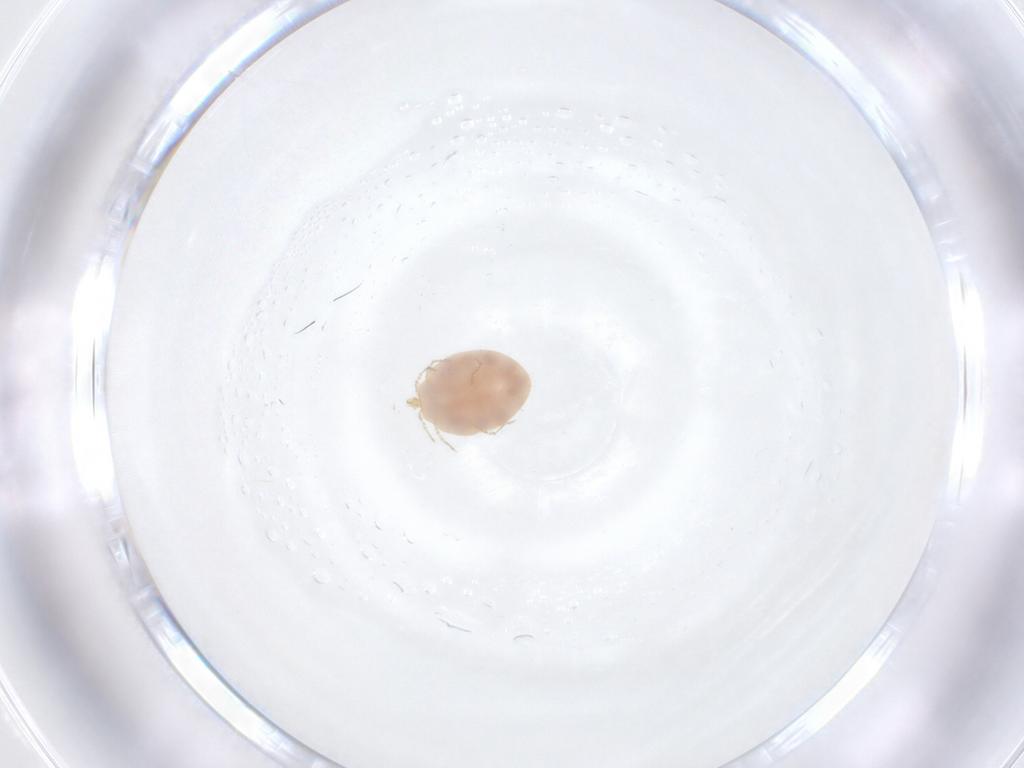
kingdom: Animalia
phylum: Arthropoda
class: Arachnida
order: Trombidiformes
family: Erythraeidae
